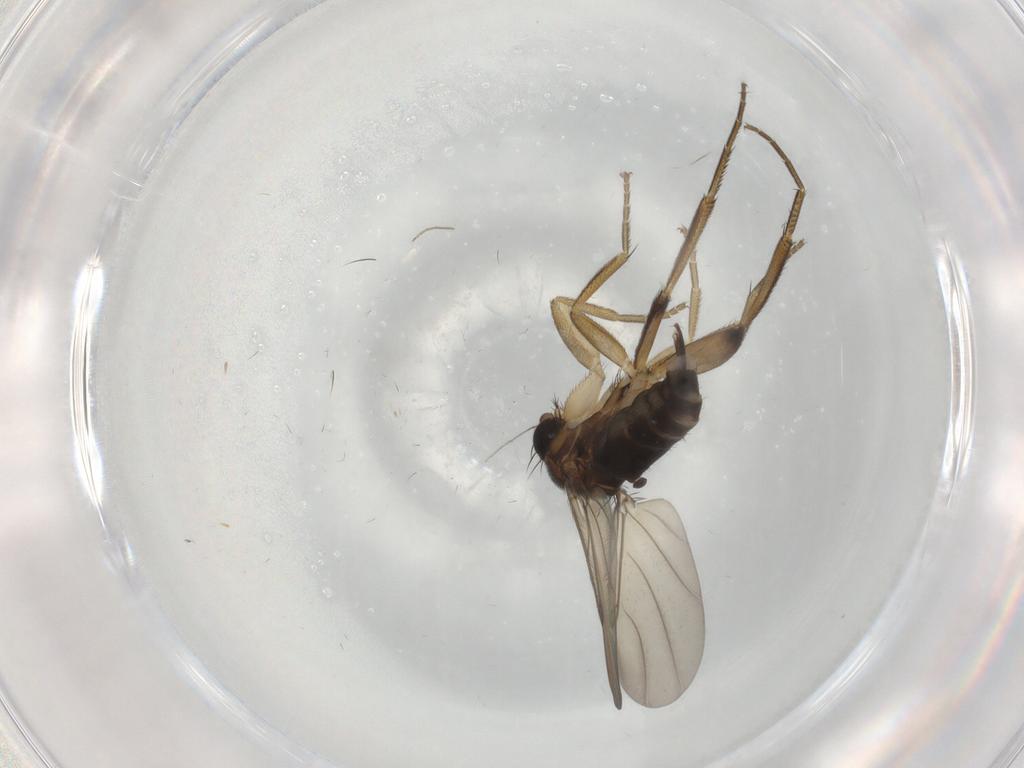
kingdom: Animalia
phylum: Arthropoda
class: Insecta
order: Diptera
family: Phoridae
